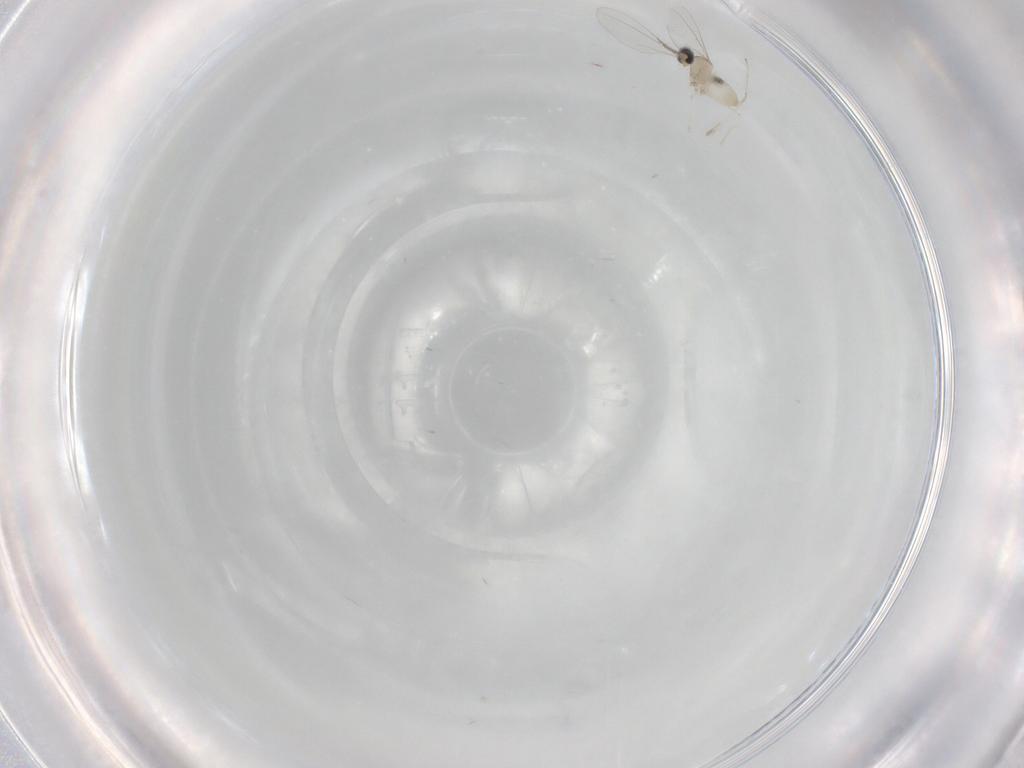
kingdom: Animalia
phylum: Arthropoda
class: Insecta
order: Diptera
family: Cecidomyiidae
